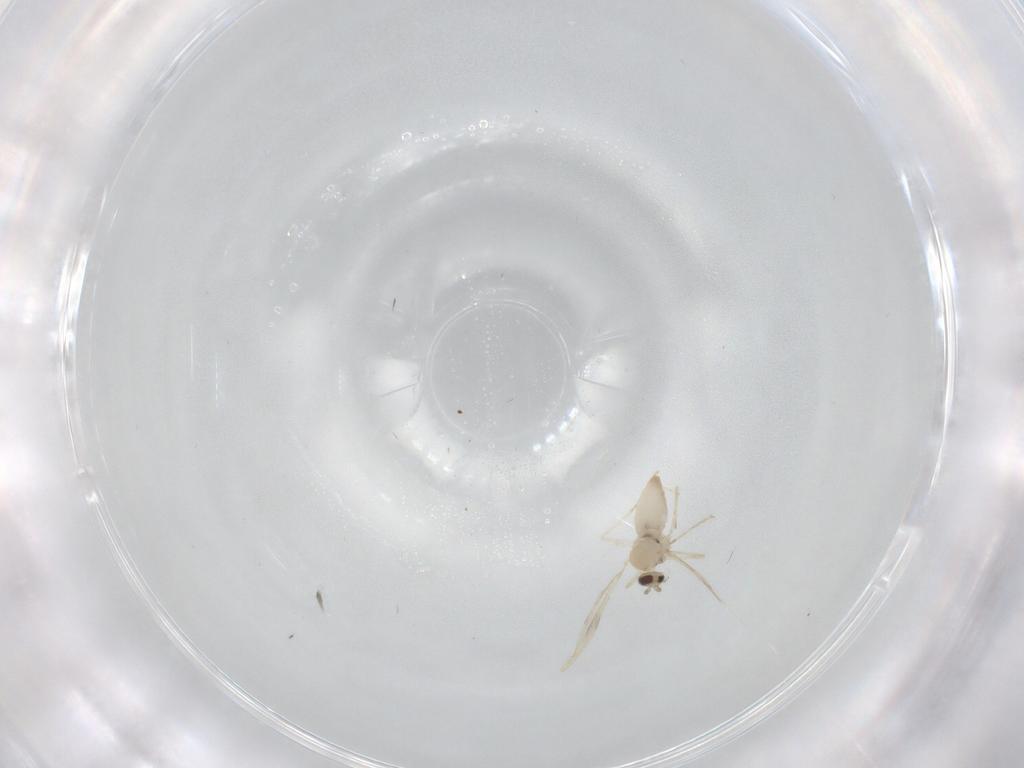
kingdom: Animalia
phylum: Arthropoda
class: Insecta
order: Diptera
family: Cecidomyiidae
